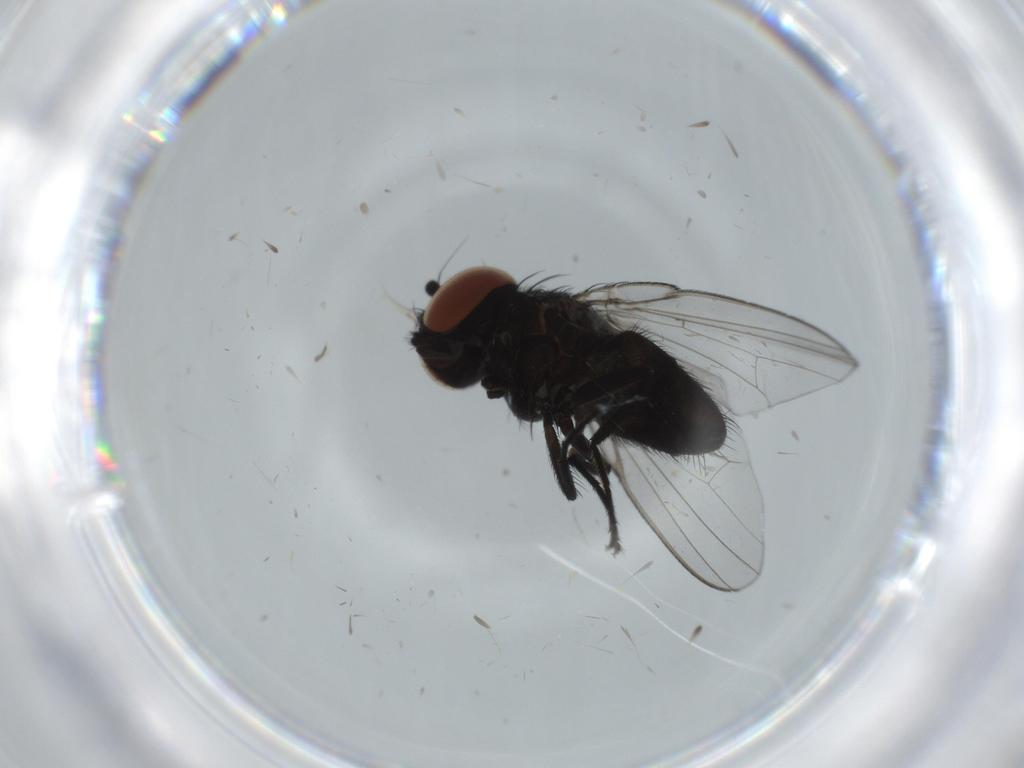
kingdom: Animalia
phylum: Arthropoda
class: Insecta
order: Diptera
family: Milichiidae
